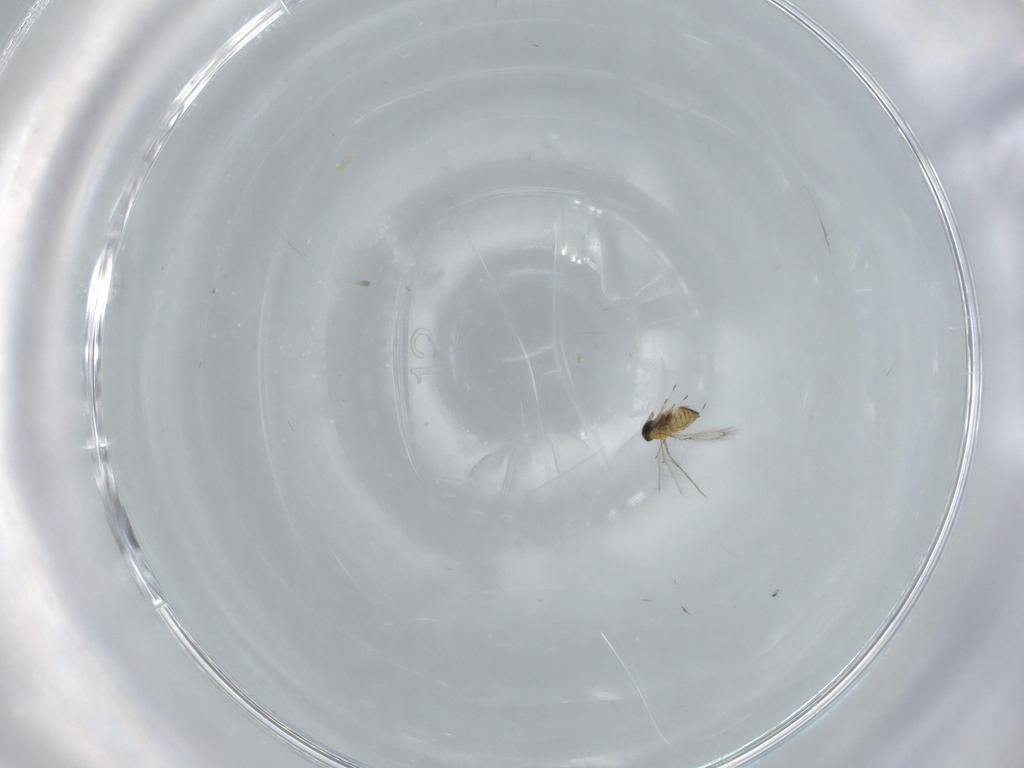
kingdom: Animalia
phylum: Arthropoda
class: Insecta
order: Hymenoptera
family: Trichogrammatidae
